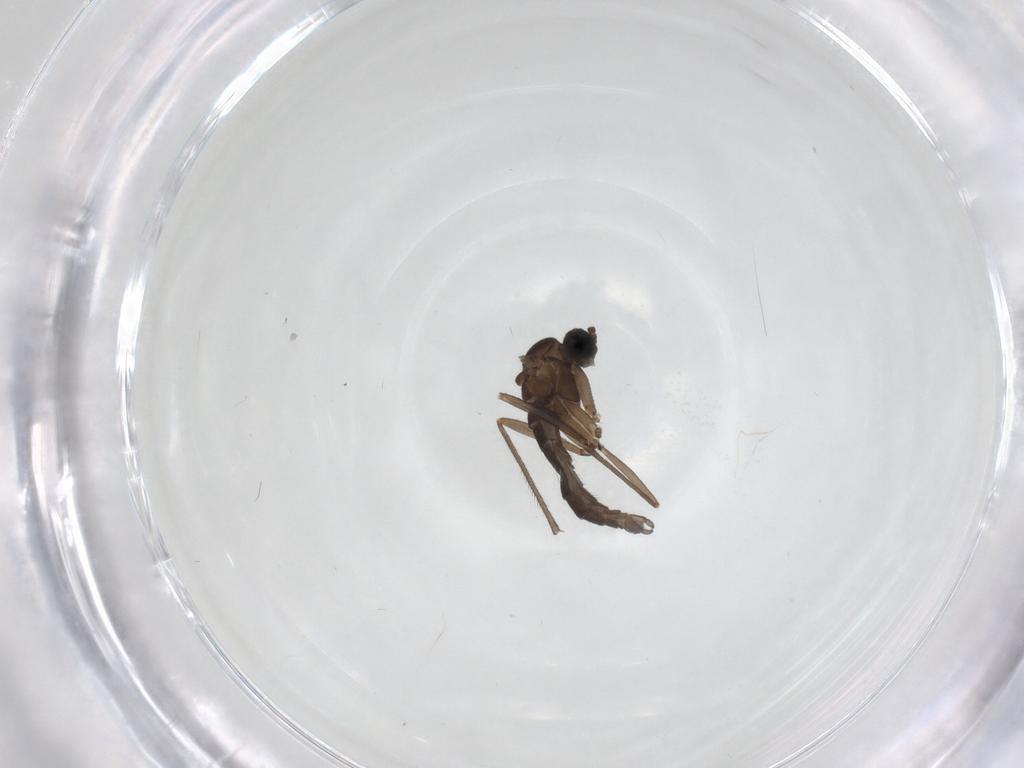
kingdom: Animalia
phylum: Arthropoda
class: Insecta
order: Diptera
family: Sciaridae
